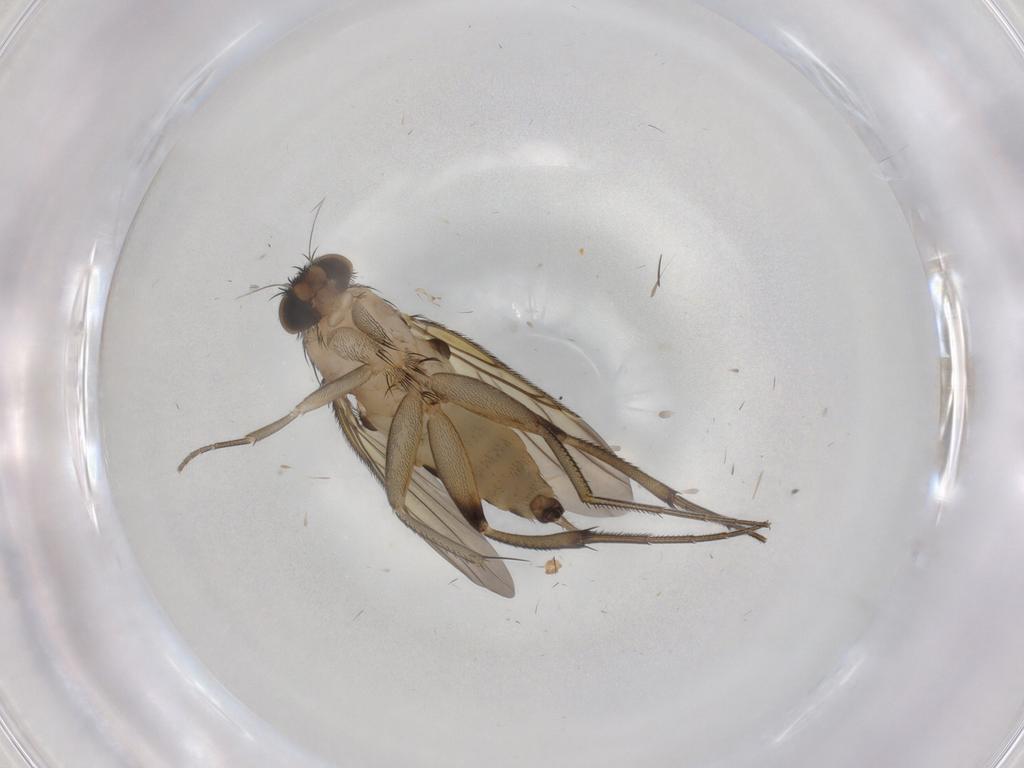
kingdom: Animalia
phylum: Arthropoda
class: Insecta
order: Diptera
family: Phoridae
